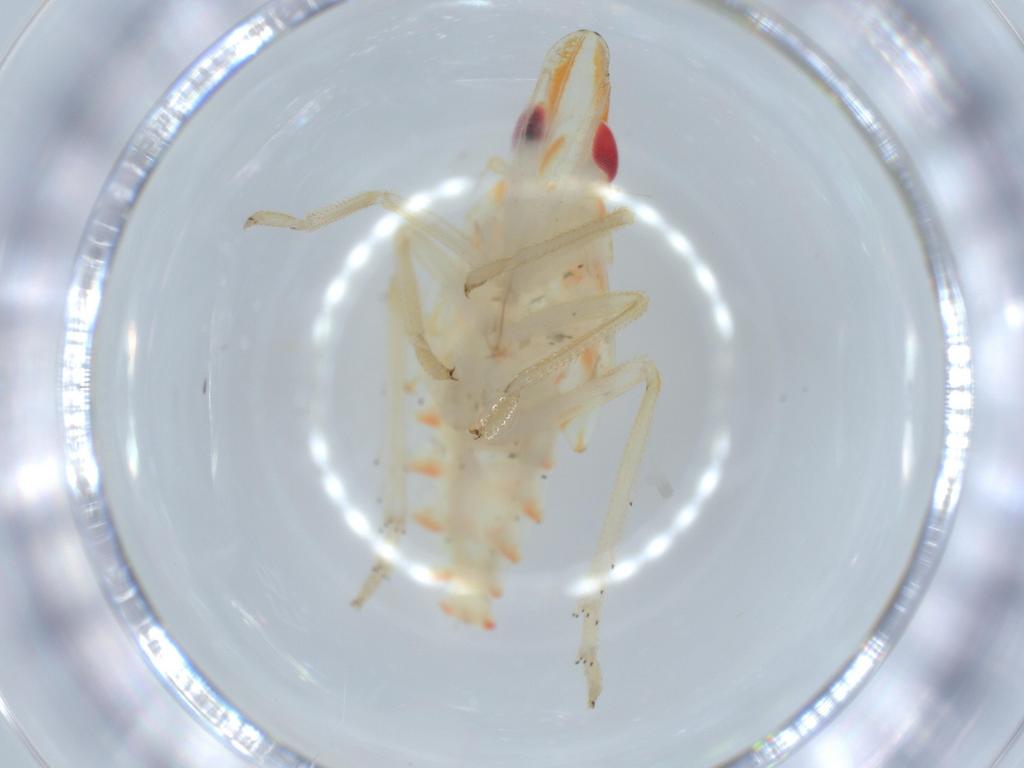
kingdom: Animalia
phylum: Arthropoda
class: Insecta
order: Hemiptera
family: Tropiduchidae
